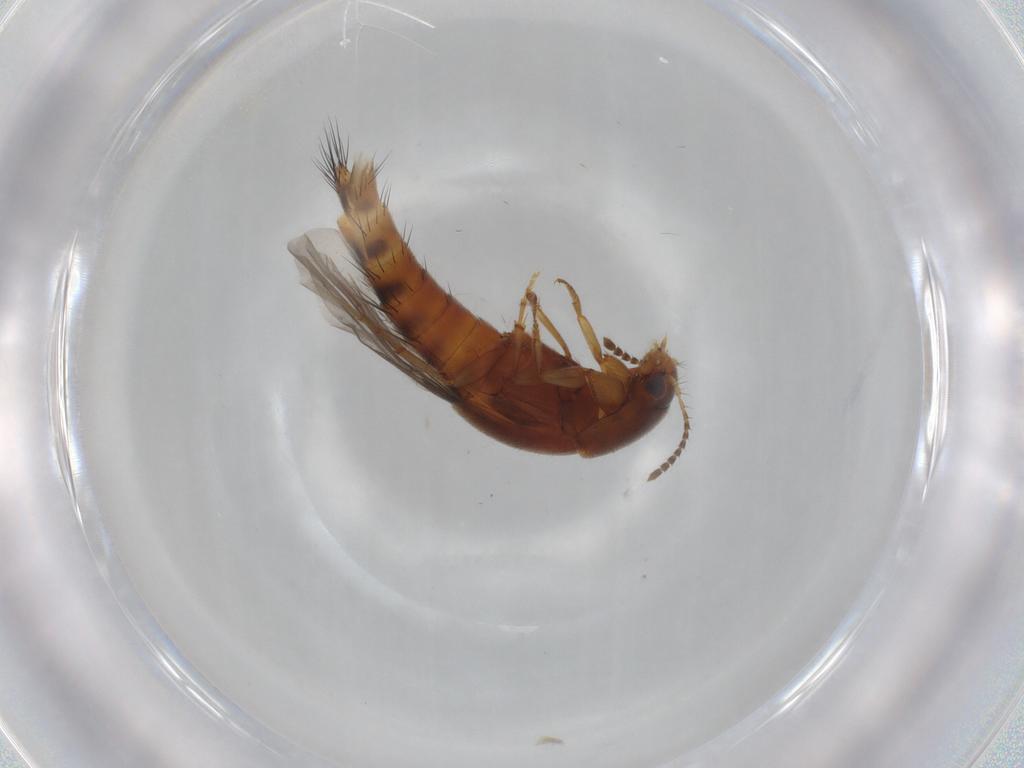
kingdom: Animalia
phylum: Arthropoda
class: Insecta
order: Coleoptera
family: Staphylinidae
